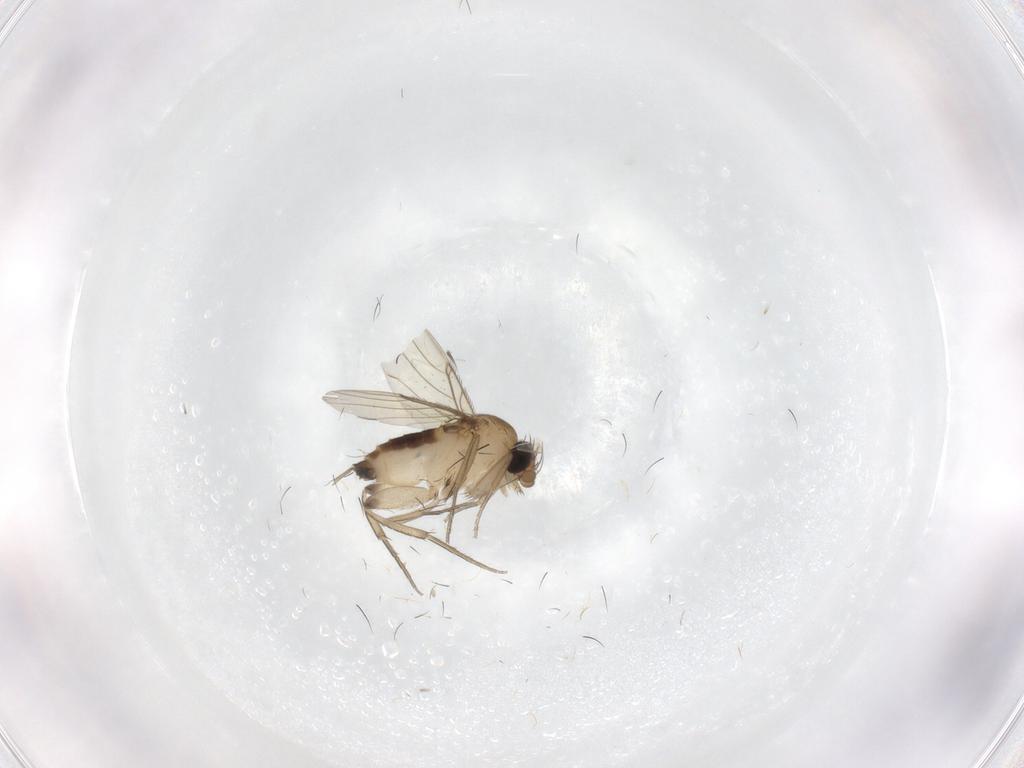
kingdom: Animalia
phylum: Arthropoda
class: Insecta
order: Diptera
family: Phoridae
